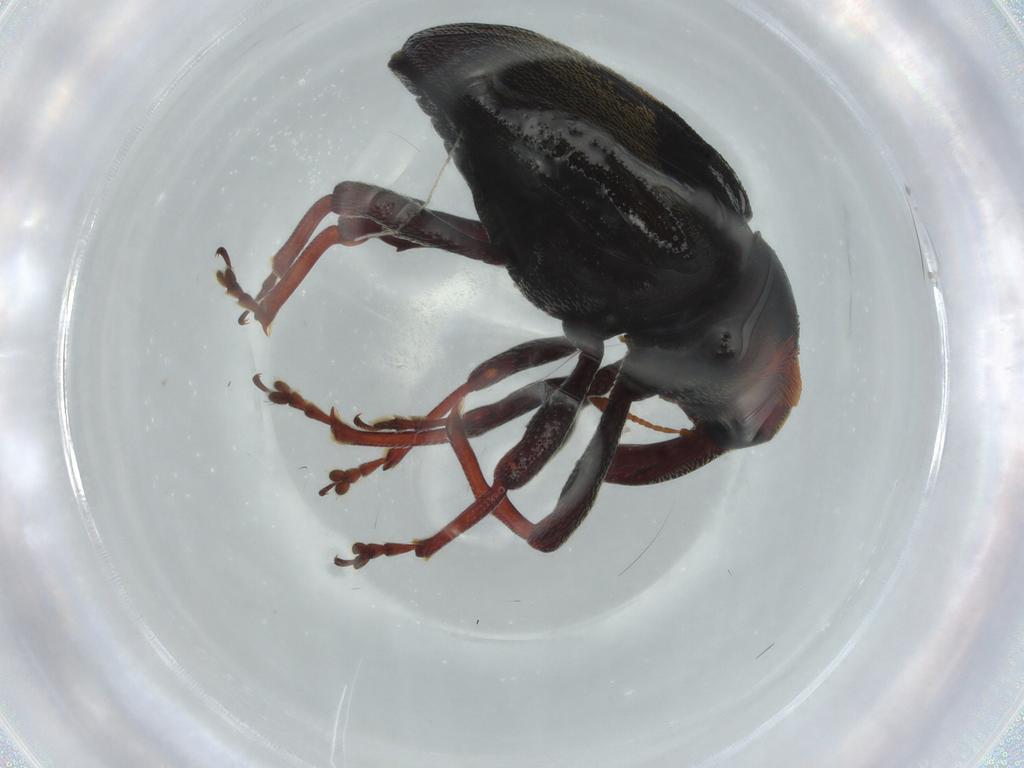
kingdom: Animalia
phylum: Arthropoda
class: Insecta
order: Coleoptera
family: Curculionidae
